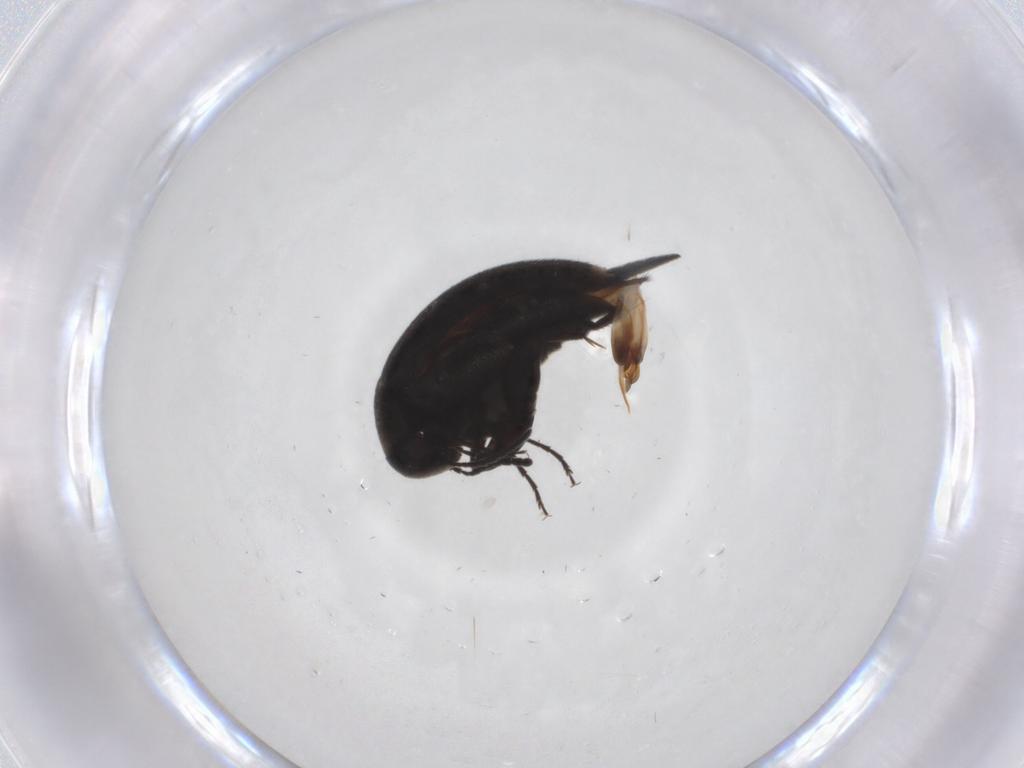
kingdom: Animalia
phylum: Arthropoda
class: Insecta
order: Coleoptera
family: Mordellidae
